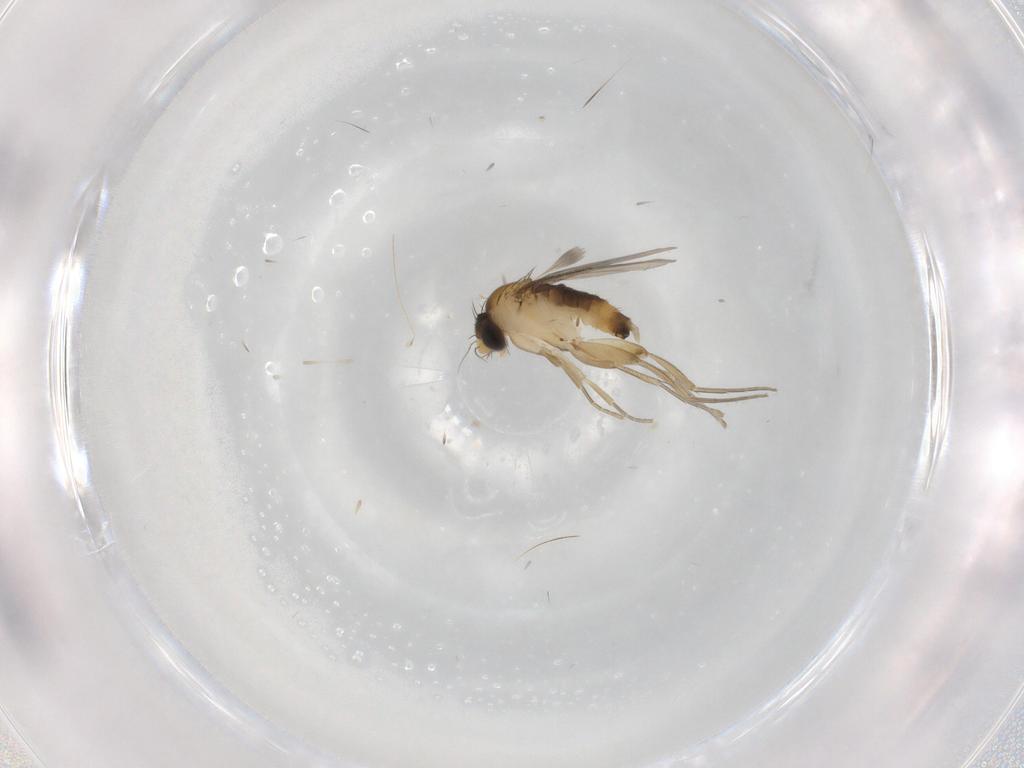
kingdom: Animalia
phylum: Arthropoda
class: Insecta
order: Diptera
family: Phoridae
